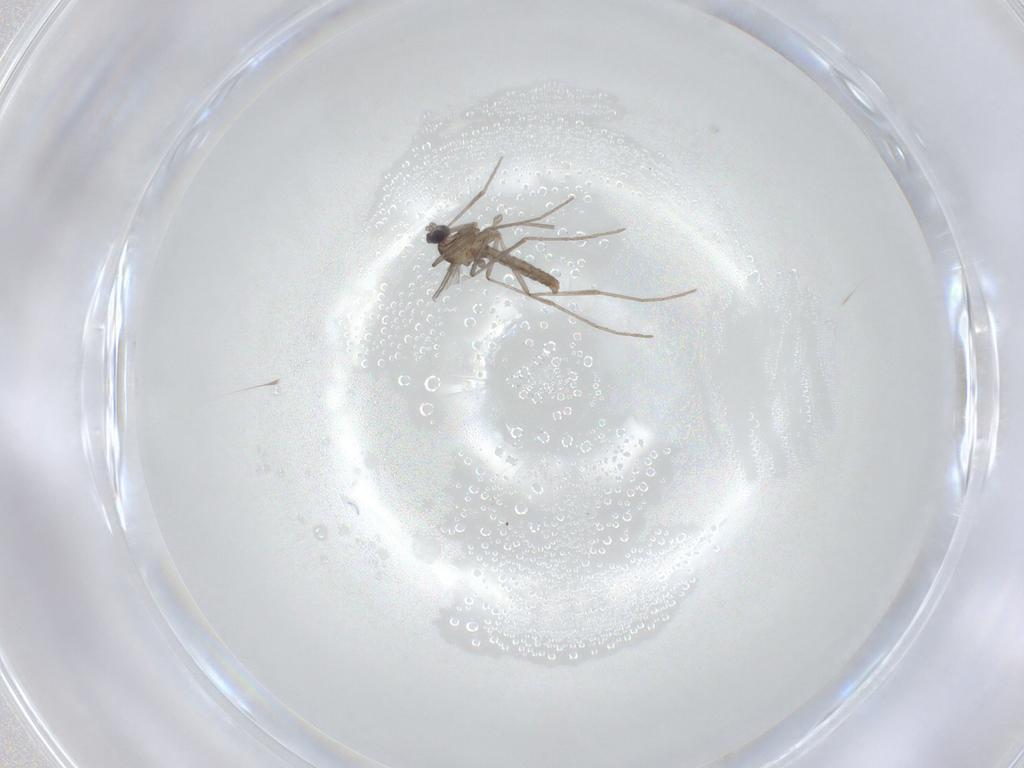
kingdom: Animalia
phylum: Arthropoda
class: Insecta
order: Diptera
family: Cecidomyiidae
